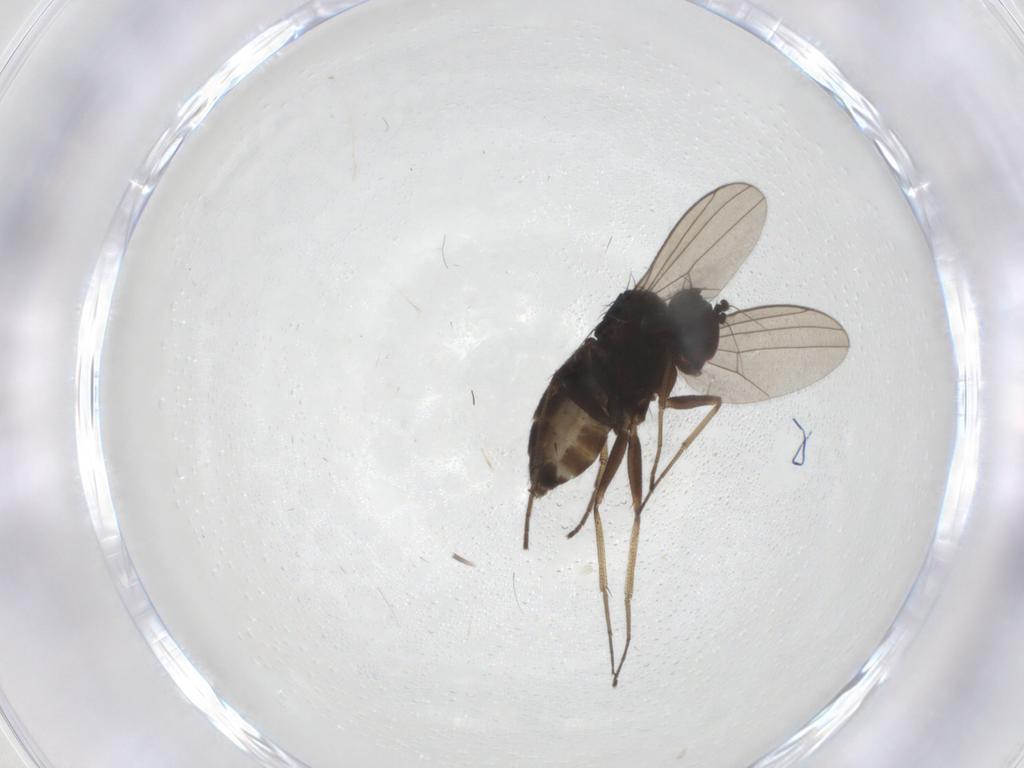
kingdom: Animalia
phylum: Arthropoda
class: Insecta
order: Diptera
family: Dolichopodidae
